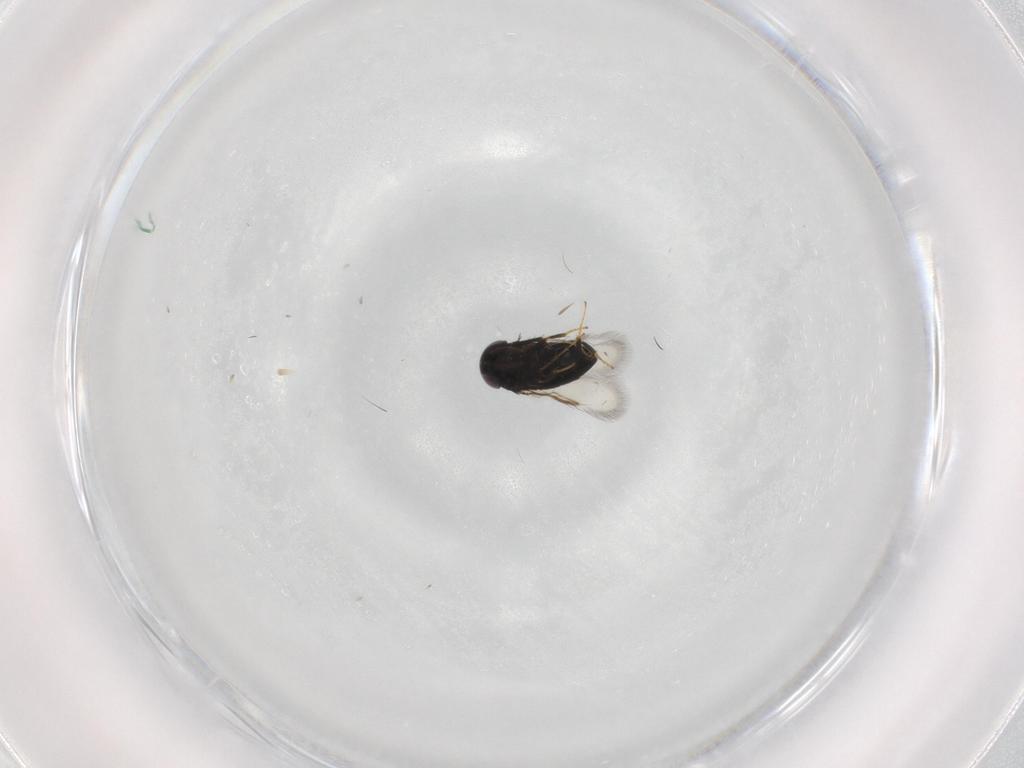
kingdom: Animalia
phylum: Arthropoda
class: Insecta
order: Hymenoptera
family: Signiphoridae
